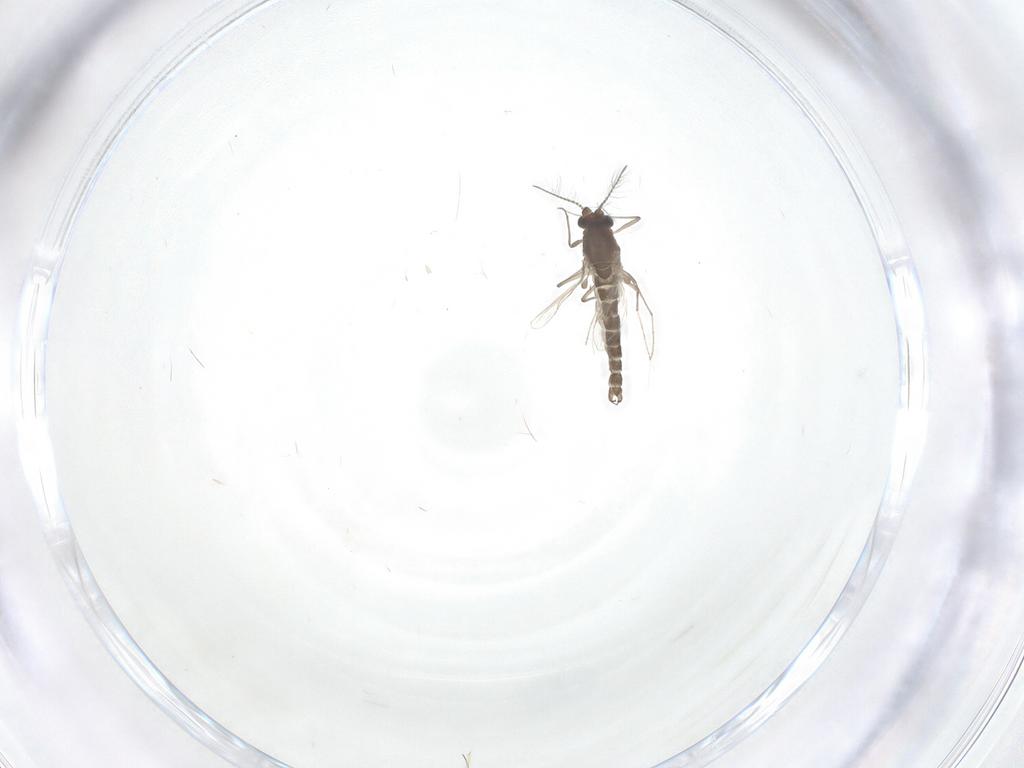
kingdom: Animalia
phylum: Arthropoda
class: Insecta
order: Diptera
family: Chironomidae
